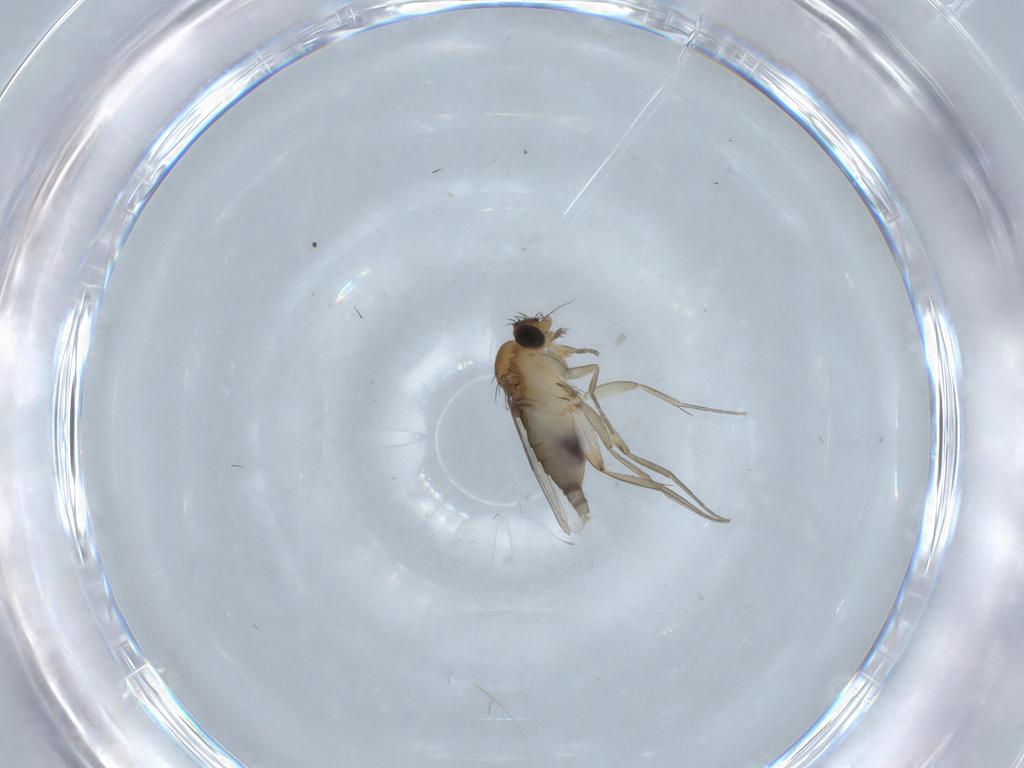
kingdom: Animalia
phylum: Arthropoda
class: Insecta
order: Diptera
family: Phoridae
